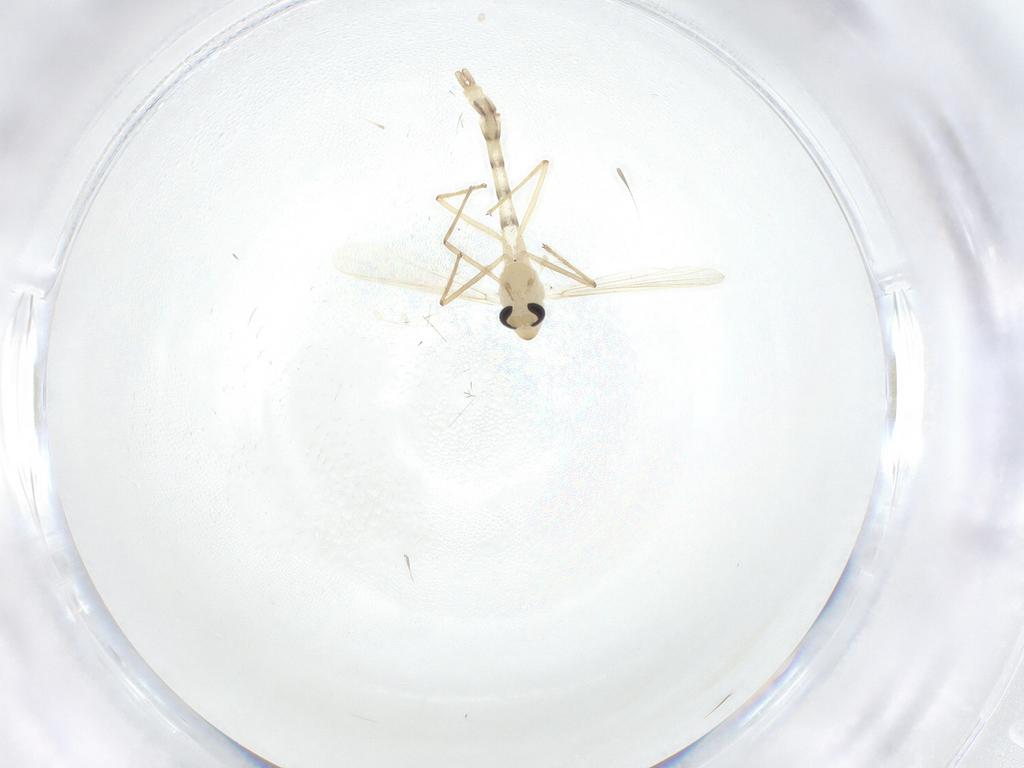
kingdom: Animalia
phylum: Arthropoda
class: Insecta
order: Diptera
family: Chironomidae
